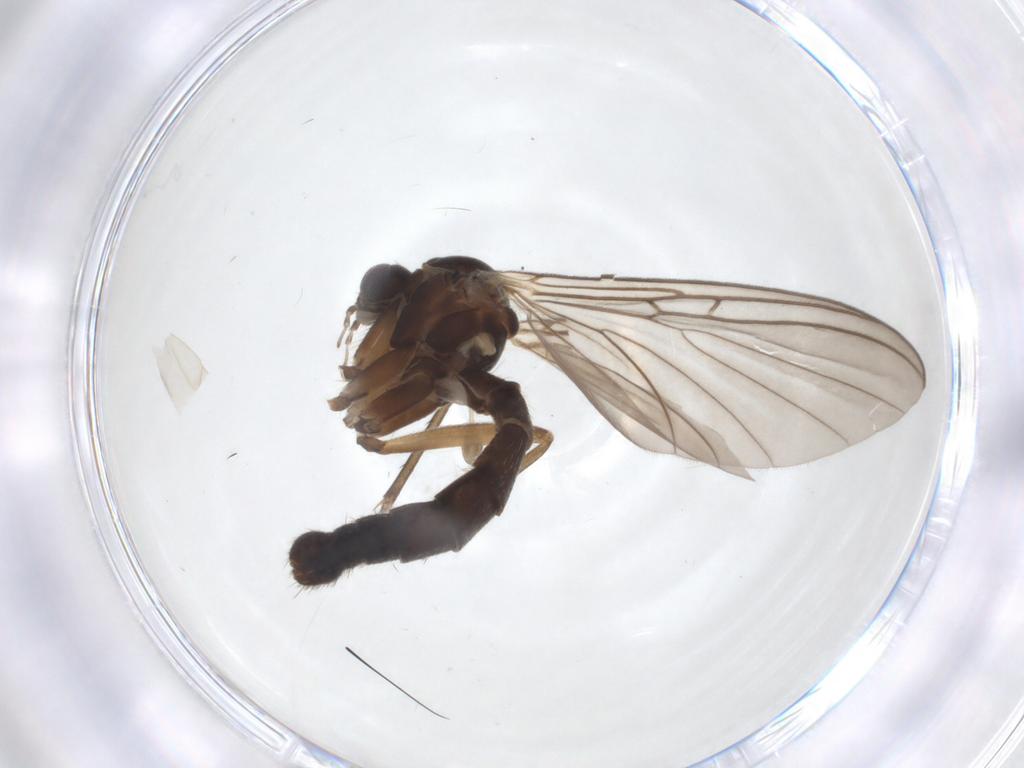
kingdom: Animalia
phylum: Arthropoda
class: Insecta
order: Diptera
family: Mycetophilidae
